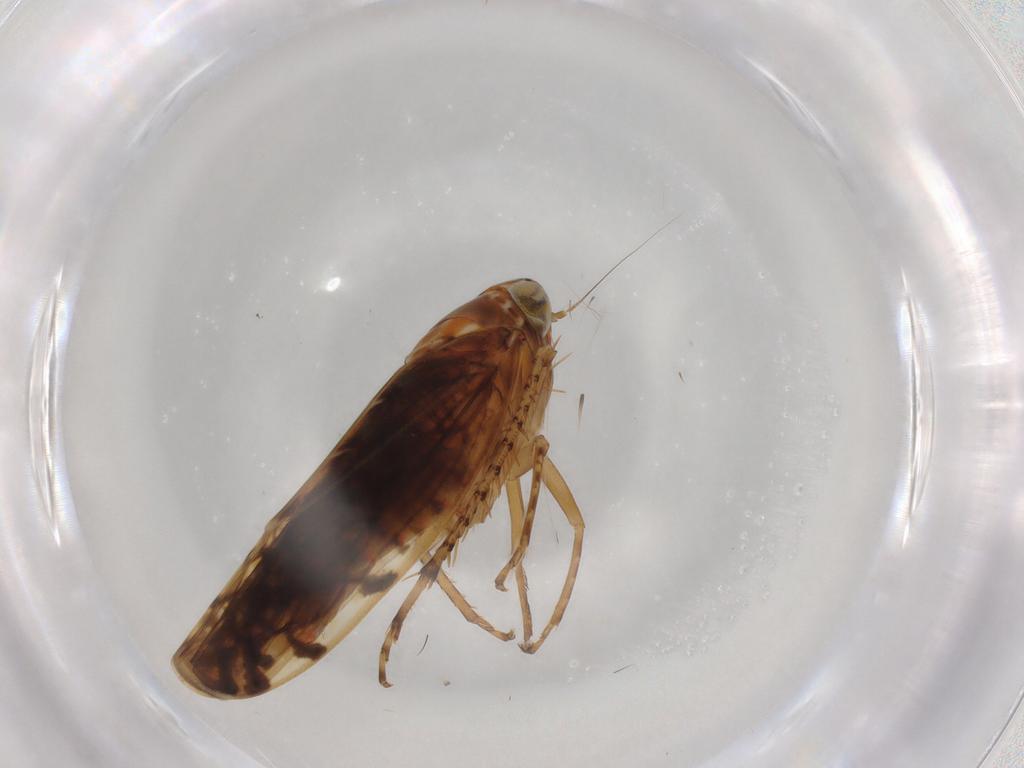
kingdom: Animalia
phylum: Arthropoda
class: Insecta
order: Hemiptera
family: Cicadellidae
